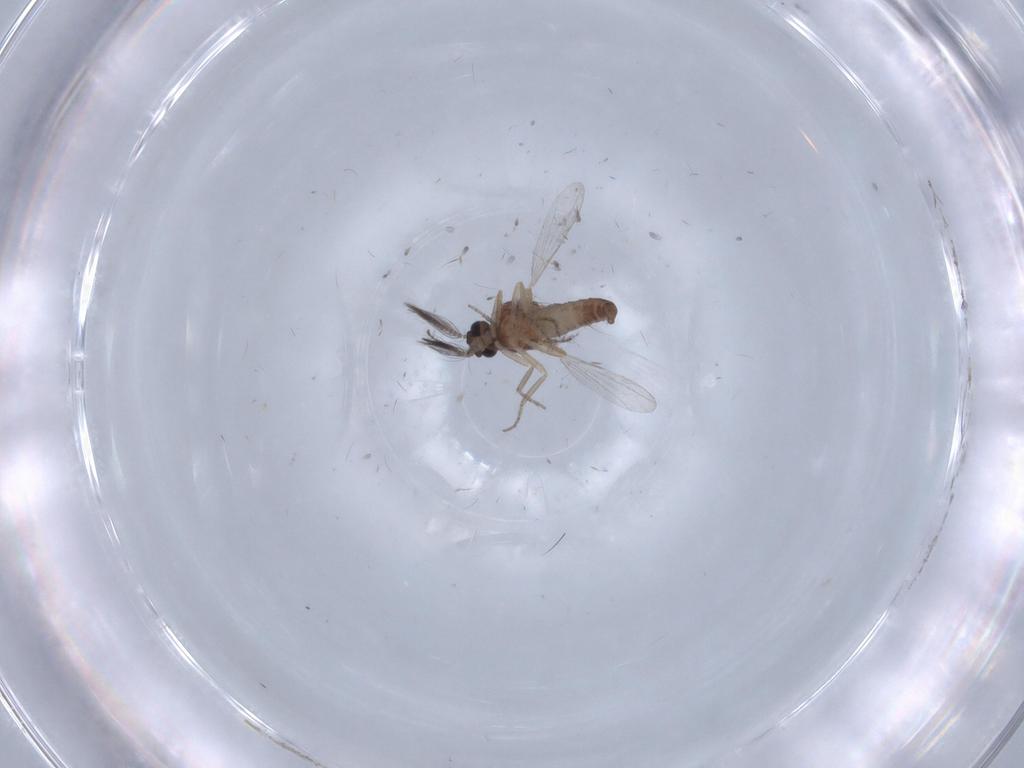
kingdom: Animalia
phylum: Arthropoda
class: Insecta
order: Diptera
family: Ceratopogonidae
